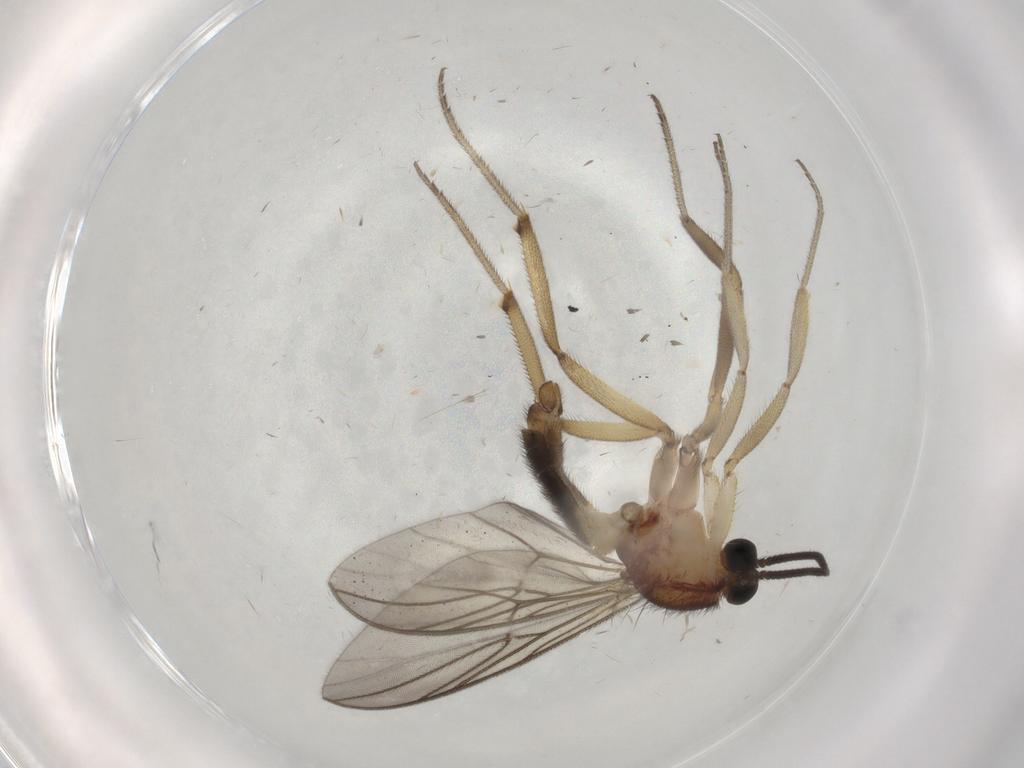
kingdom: Animalia
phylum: Arthropoda
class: Insecta
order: Diptera
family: Anisopodidae
